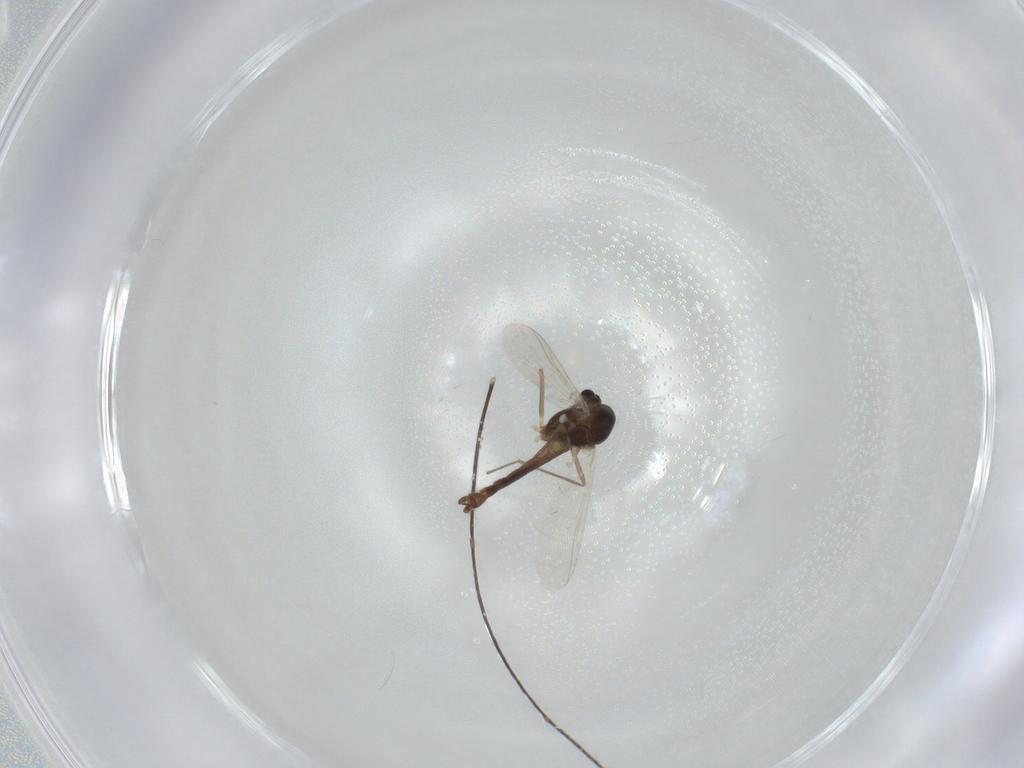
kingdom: Animalia
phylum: Arthropoda
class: Insecta
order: Diptera
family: Chironomidae
